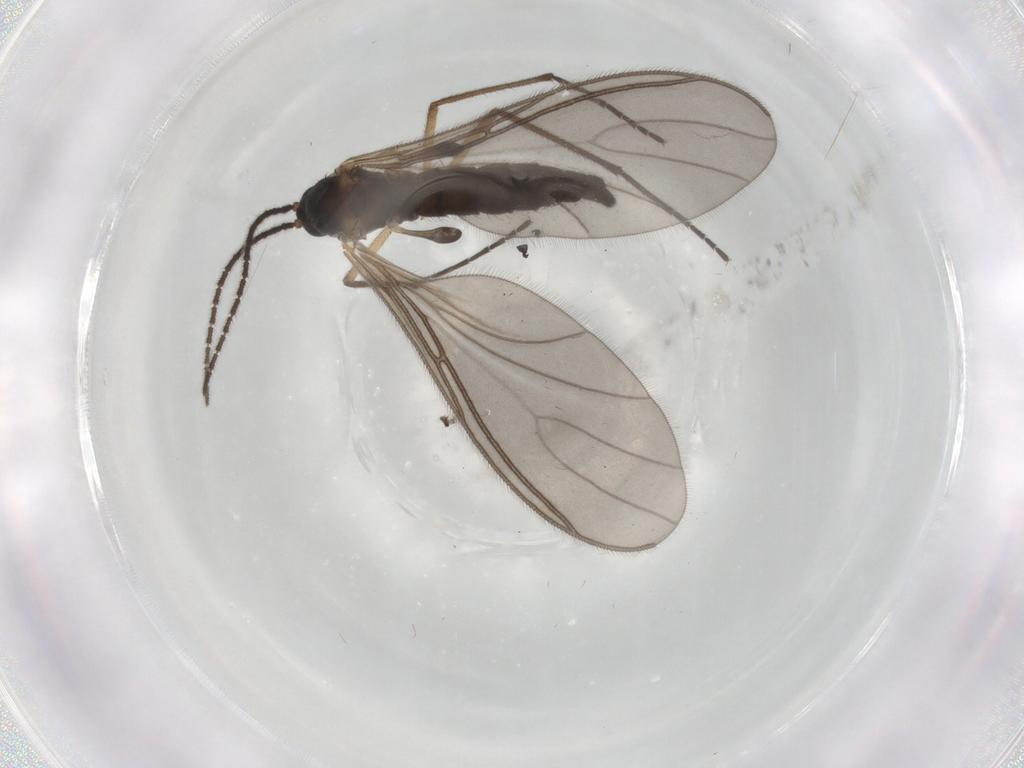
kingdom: Animalia
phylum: Arthropoda
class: Insecta
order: Diptera
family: Sciaridae
